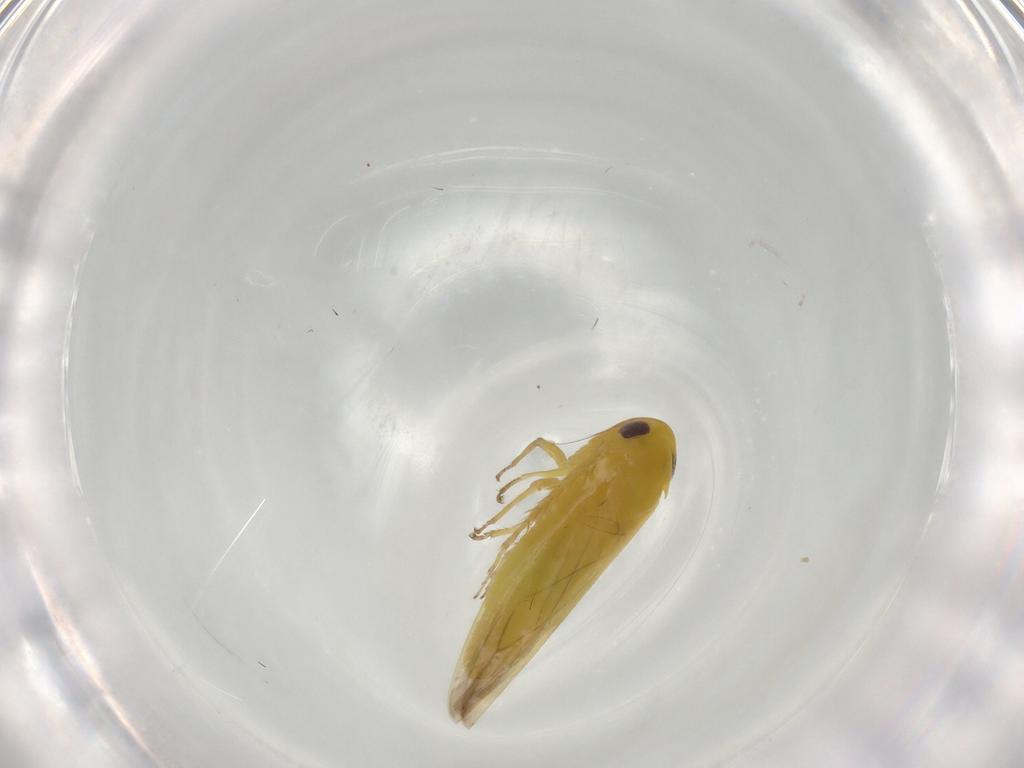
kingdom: Animalia
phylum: Arthropoda
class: Insecta
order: Hemiptera
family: Cicadellidae
